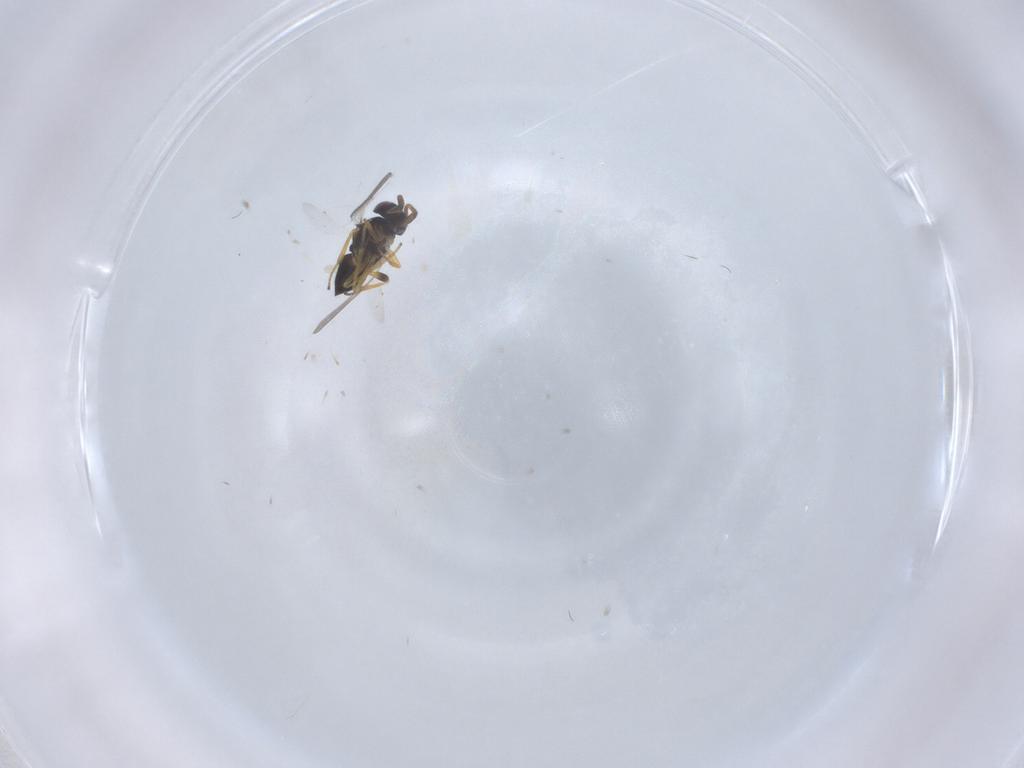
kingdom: Animalia
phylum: Arthropoda
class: Insecta
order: Hymenoptera
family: Encyrtidae
